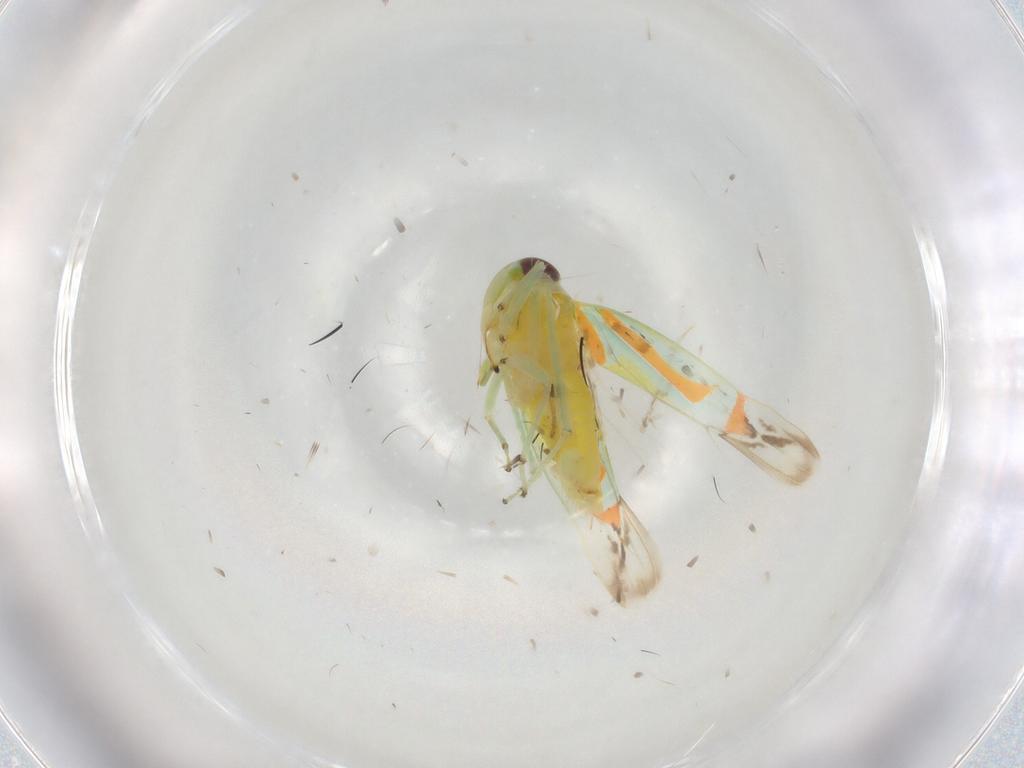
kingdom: Animalia
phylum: Arthropoda
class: Insecta
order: Hemiptera
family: Cicadellidae
